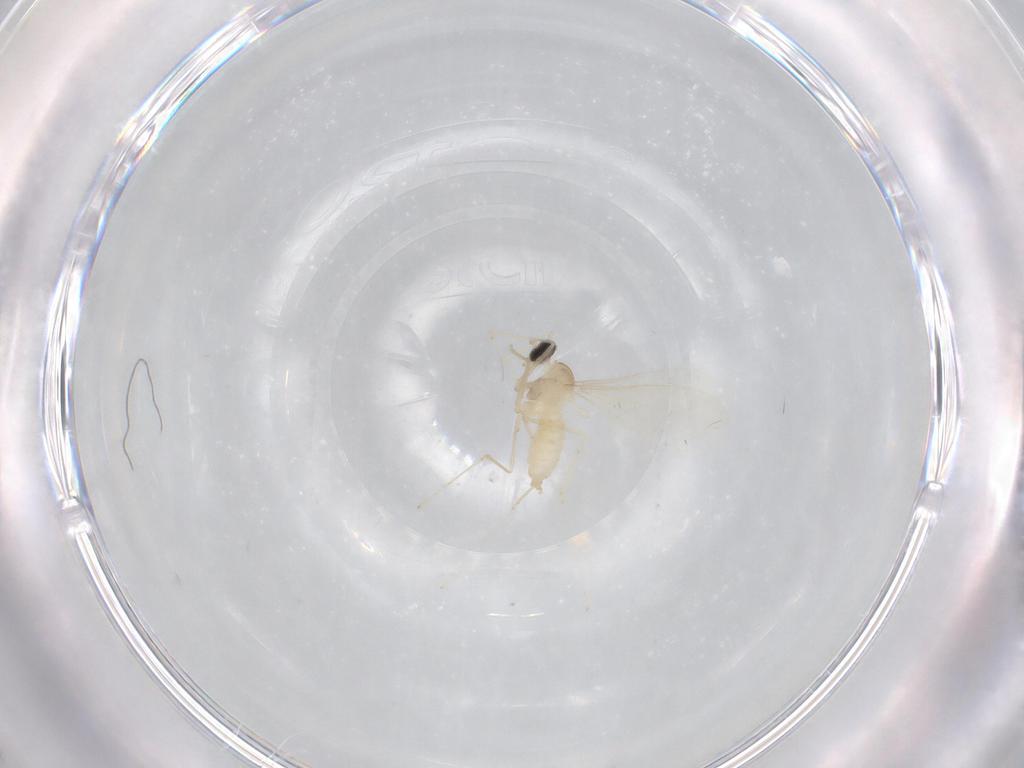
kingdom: Animalia
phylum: Arthropoda
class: Insecta
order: Diptera
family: Cecidomyiidae
